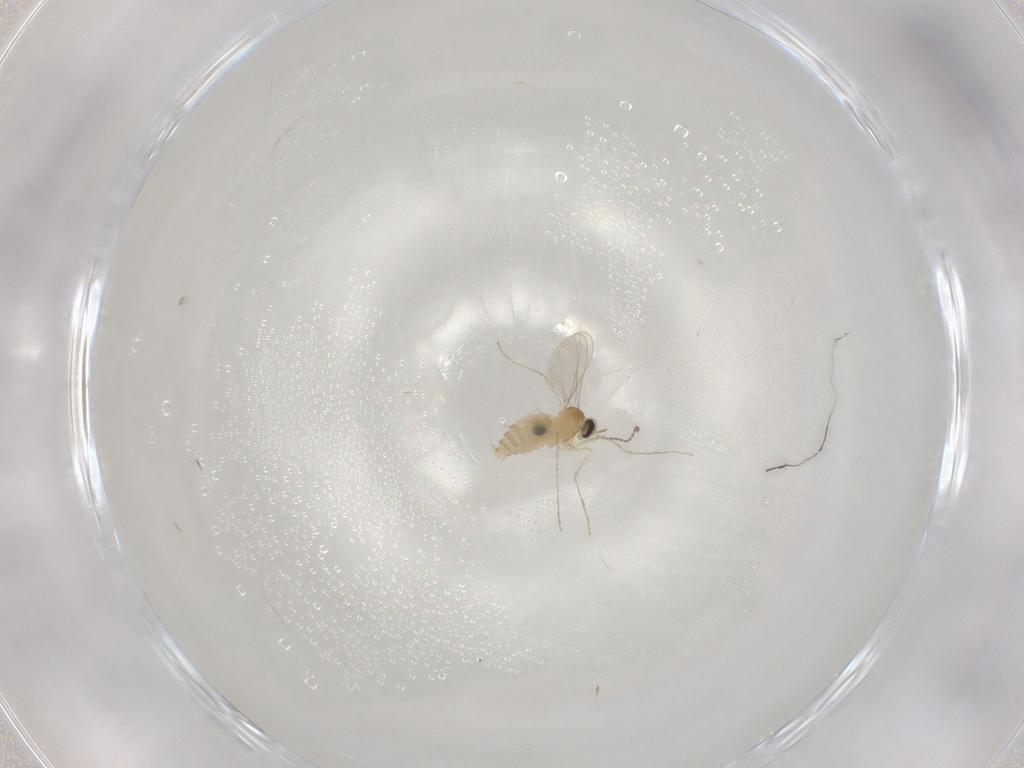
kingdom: Animalia
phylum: Arthropoda
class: Insecta
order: Diptera
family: Cecidomyiidae
